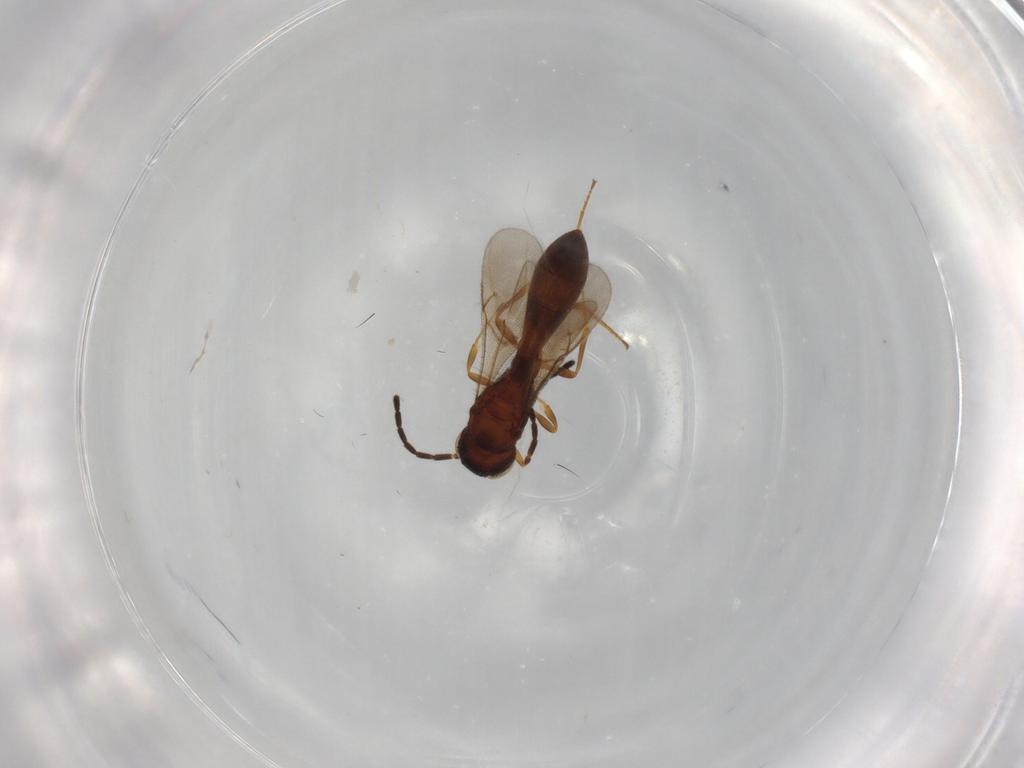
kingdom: Animalia
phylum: Arthropoda
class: Insecta
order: Hymenoptera
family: Scelionidae
